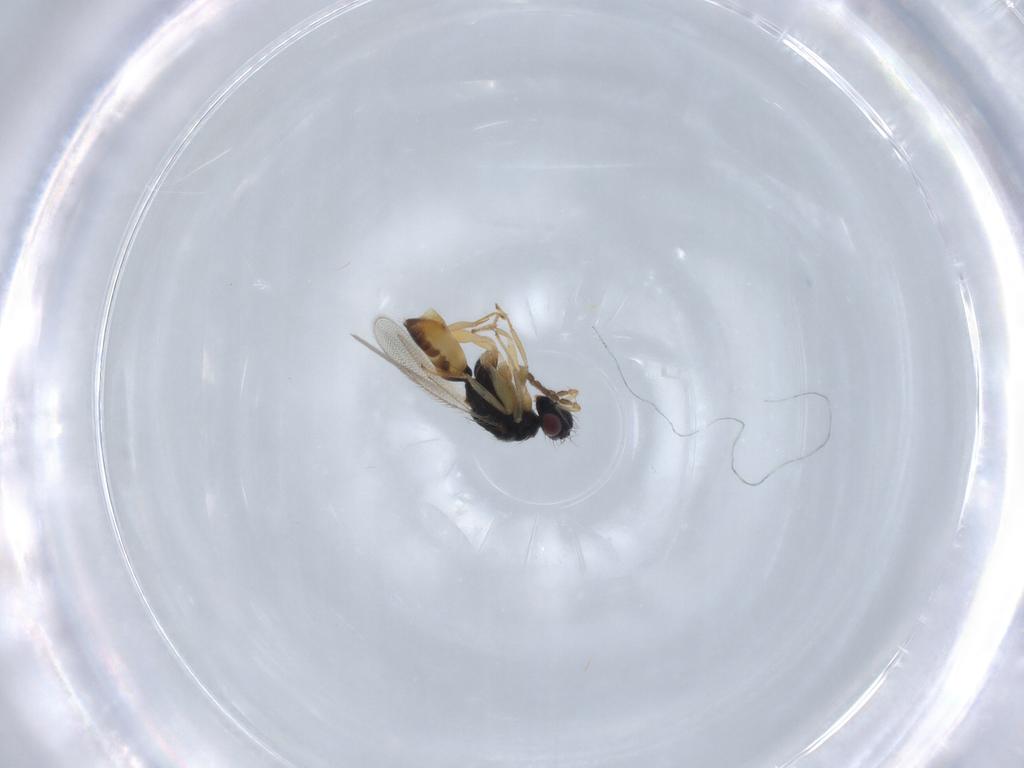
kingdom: Animalia
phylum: Arthropoda
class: Insecta
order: Hymenoptera
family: Eulophidae
